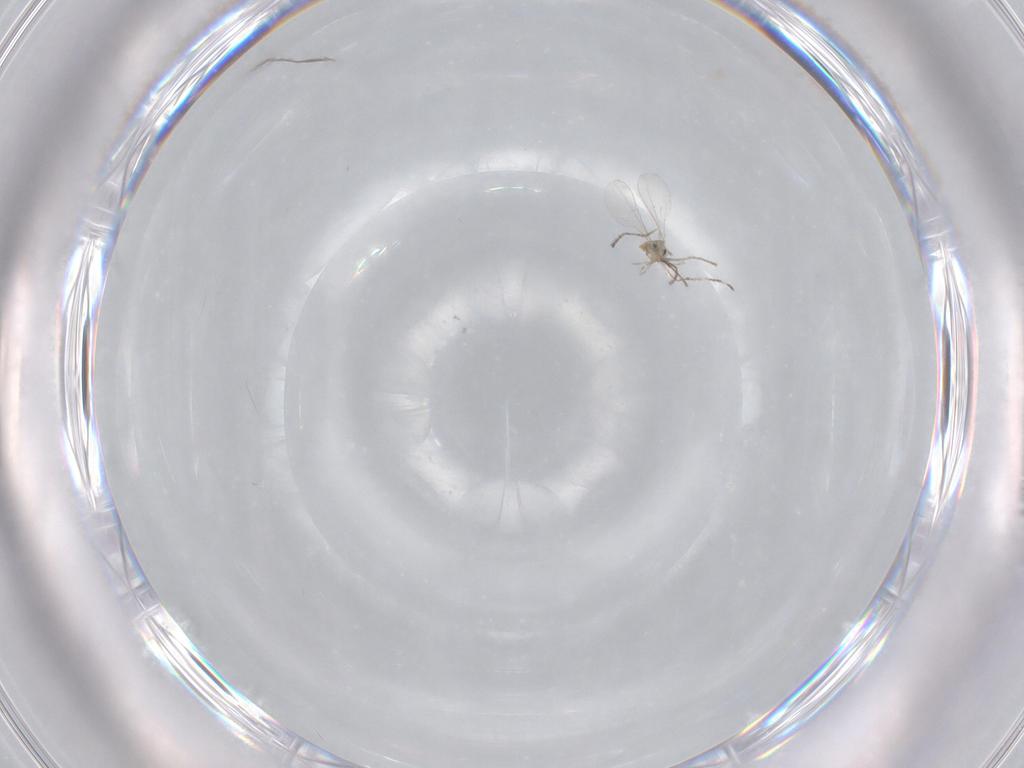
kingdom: Animalia
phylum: Arthropoda
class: Insecta
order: Diptera
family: Cecidomyiidae
